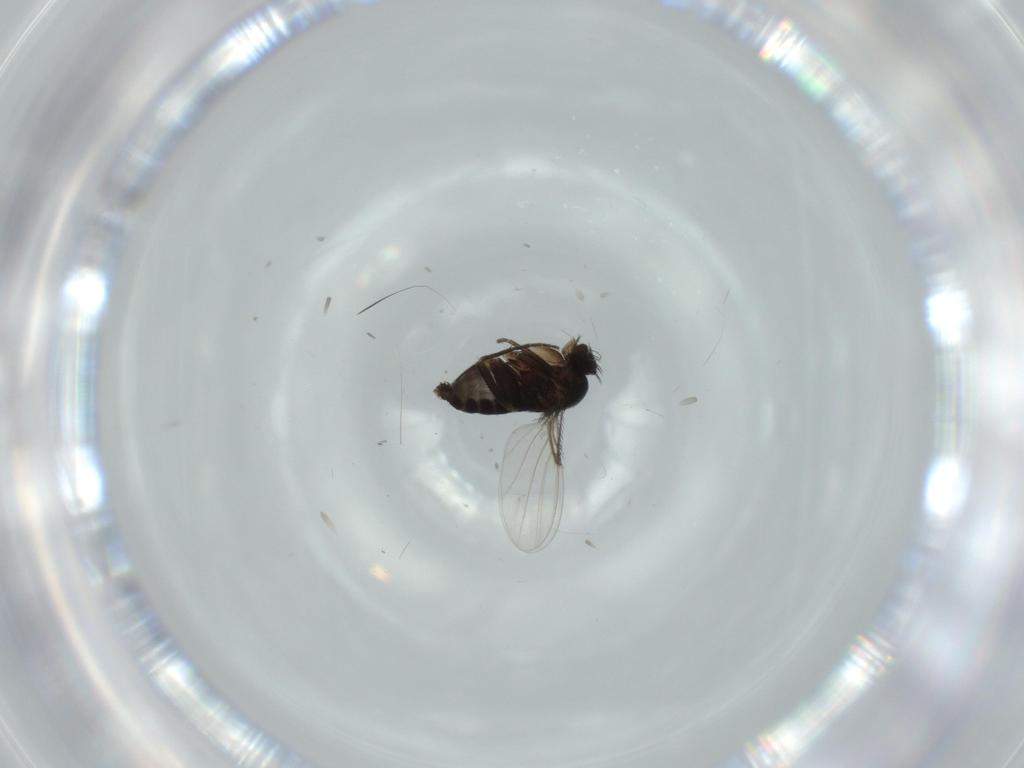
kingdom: Animalia
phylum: Arthropoda
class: Insecta
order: Diptera
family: Phoridae
